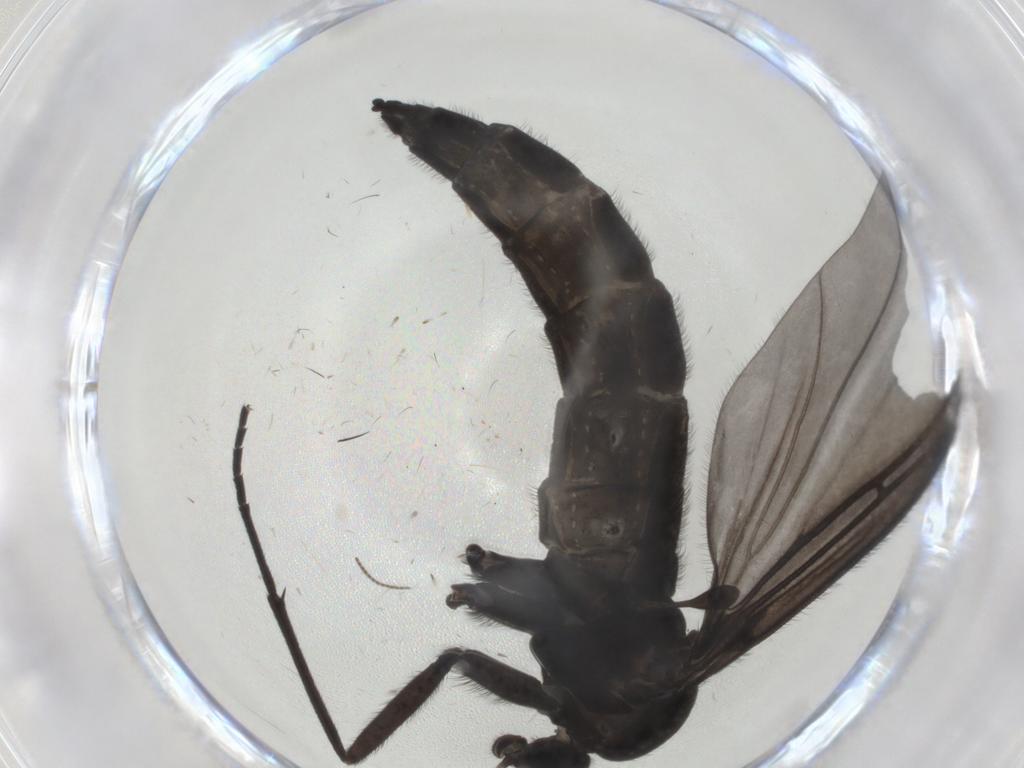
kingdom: Animalia
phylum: Arthropoda
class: Insecta
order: Diptera
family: Sciaridae
